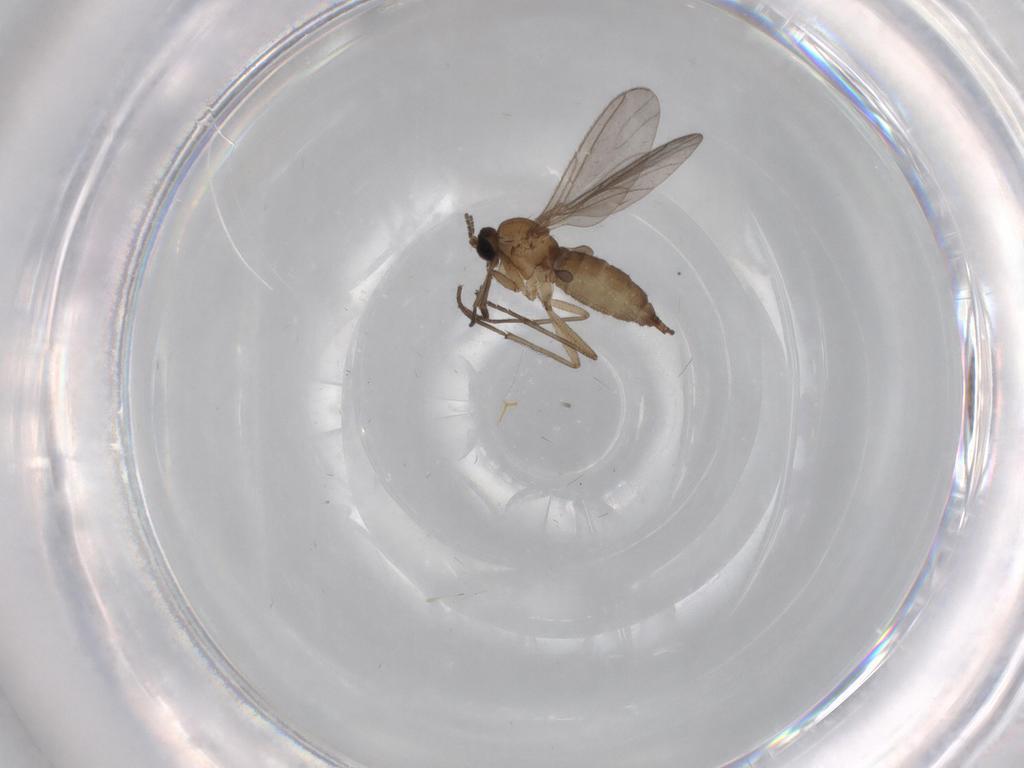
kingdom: Animalia
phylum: Arthropoda
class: Insecta
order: Diptera
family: Sciaridae
